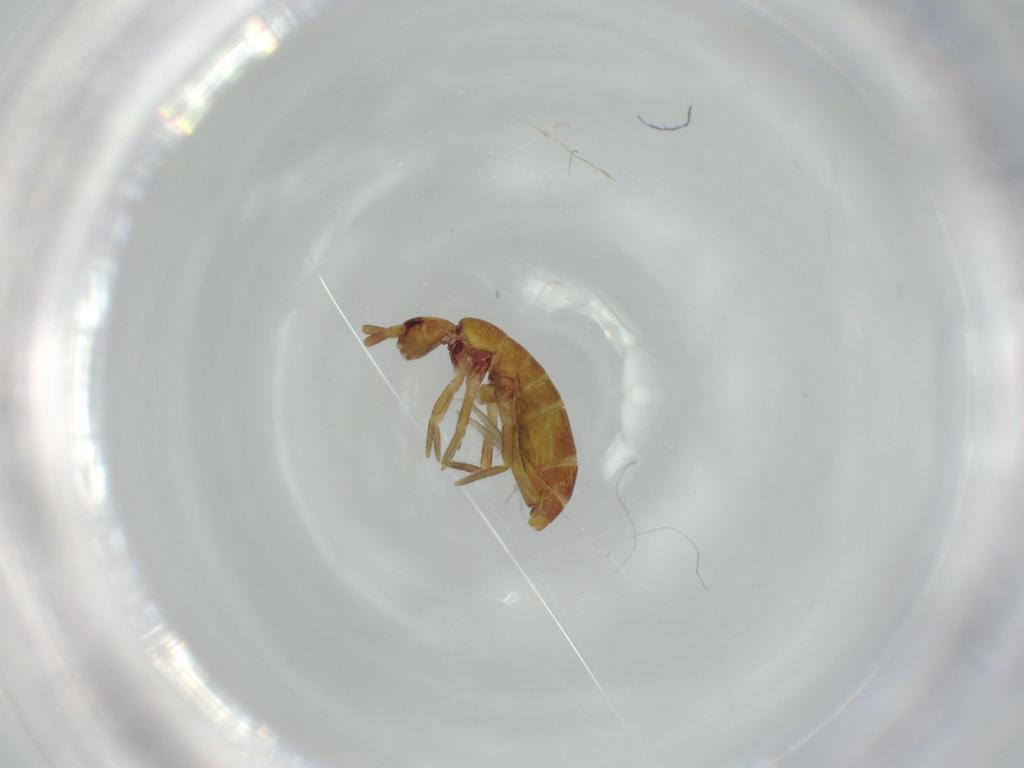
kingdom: Animalia
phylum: Arthropoda
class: Collembola
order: Entomobryomorpha
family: Tomoceridae
